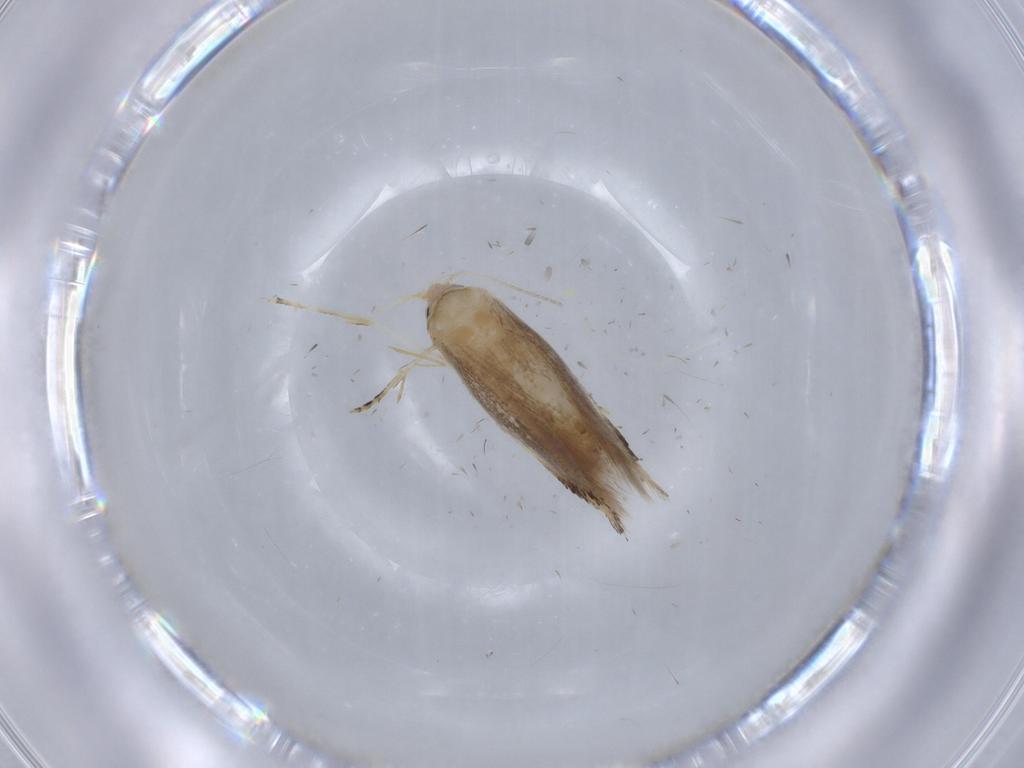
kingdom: Animalia
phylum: Arthropoda
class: Insecta
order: Lepidoptera
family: Bucculatricidae
